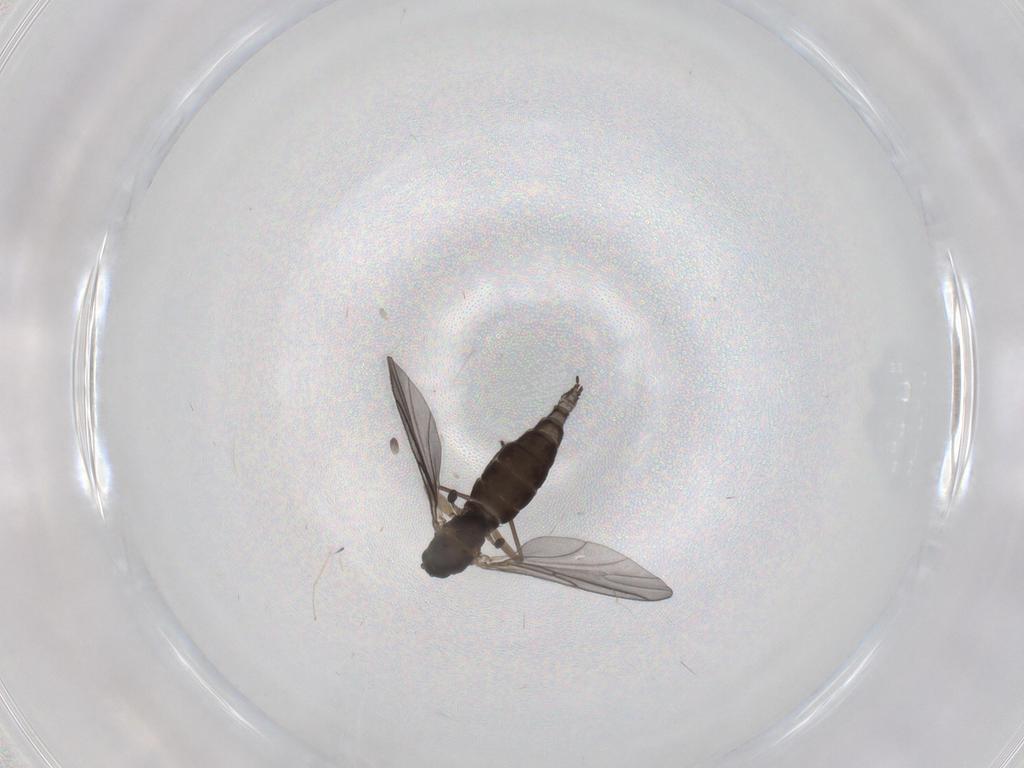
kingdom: Animalia
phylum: Arthropoda
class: Insecta
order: Diptera
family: Sciaridae
